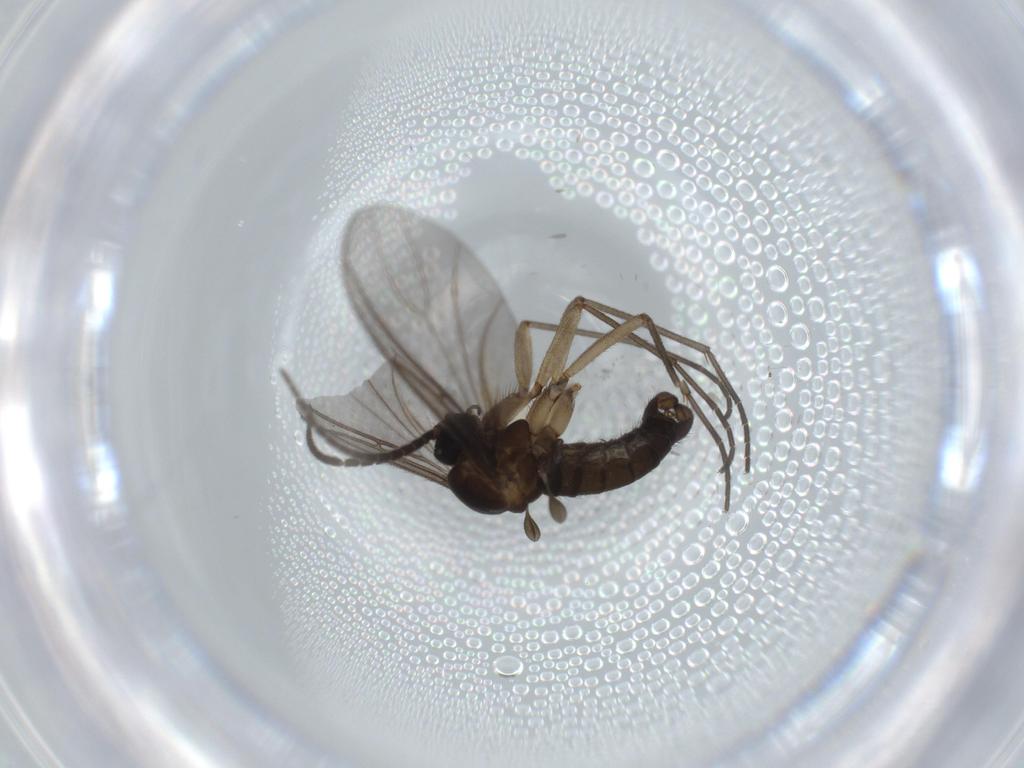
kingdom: Animalia
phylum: Arthropoda
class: Insecta
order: Diptera
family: Sciaridae
